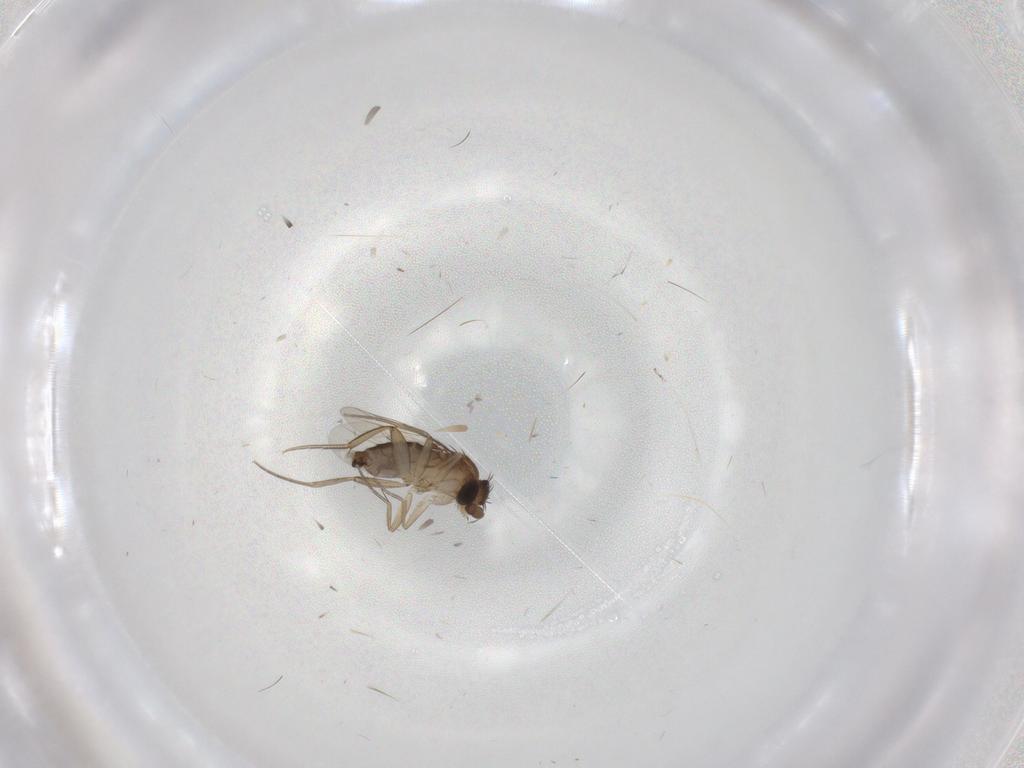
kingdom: Animalia
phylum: Arthropoda
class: Insecta
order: Diptera
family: Phoridae
